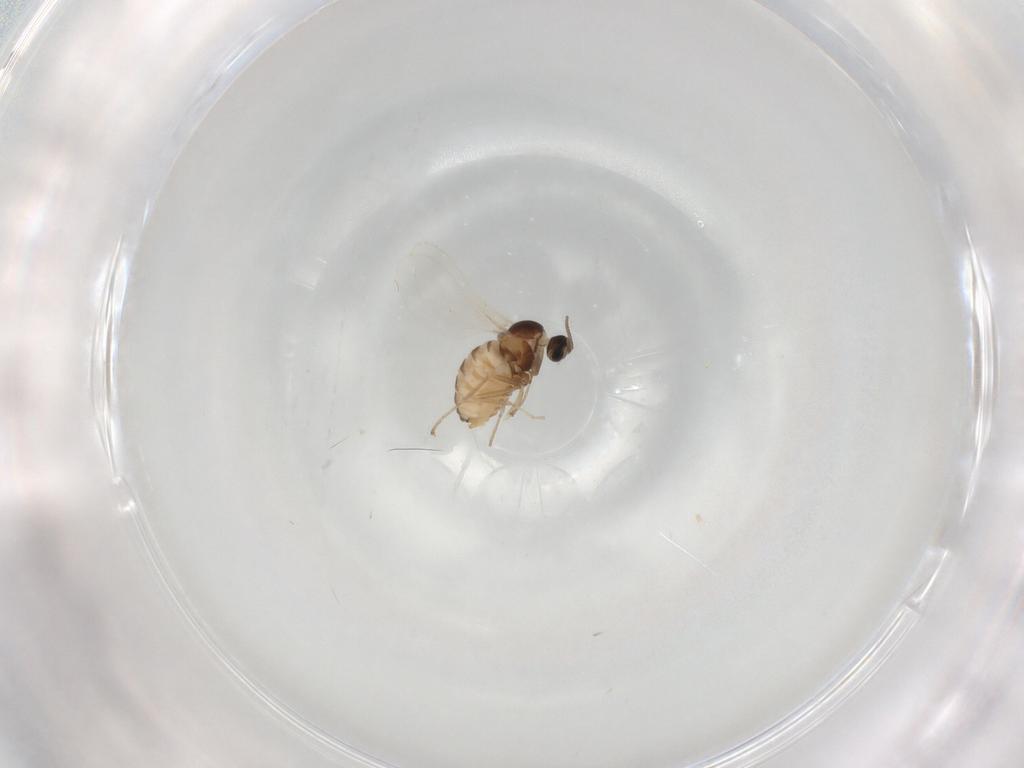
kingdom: Animalia
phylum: Arthropoda
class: Insecta
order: Diptera
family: Cecidomyiidae
